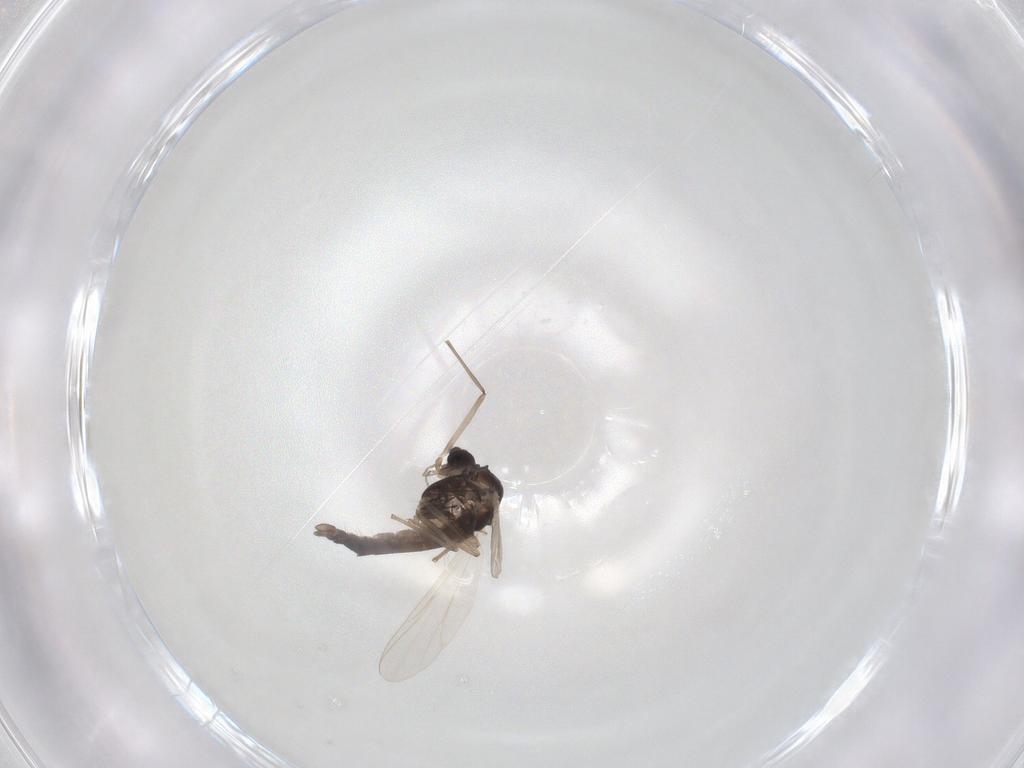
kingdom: Animalia
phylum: Arthropoda
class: Insecta
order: Diptera
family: Chironomidae
